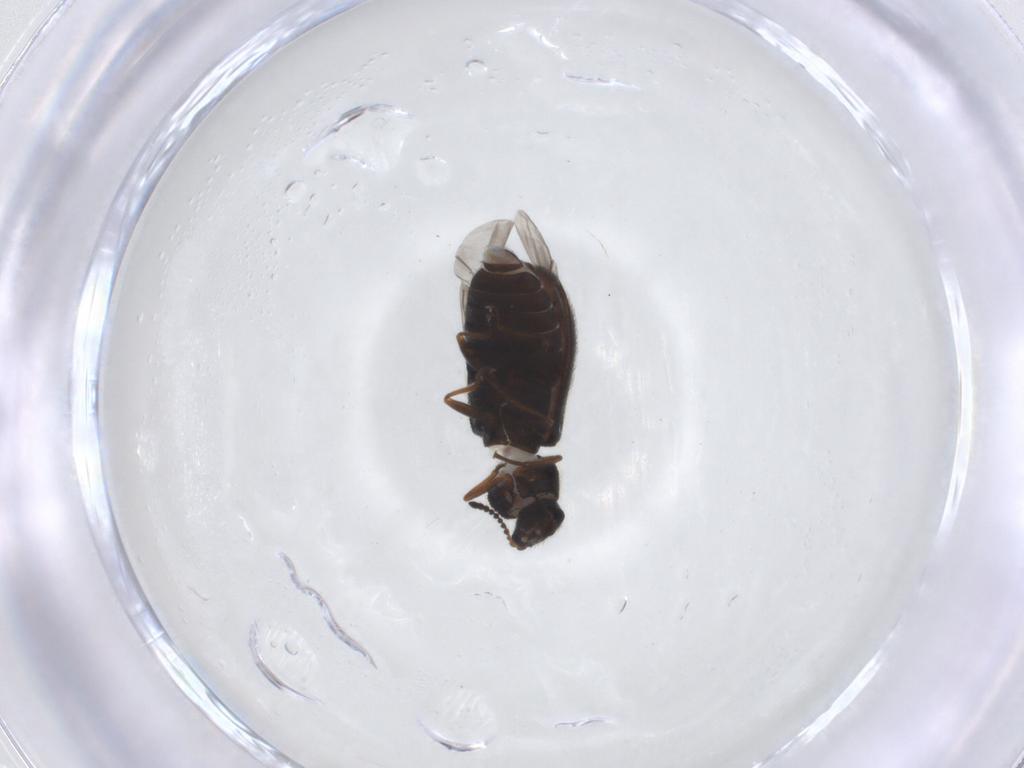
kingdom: Animalia
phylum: Arthropoda
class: Insecta
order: Coleoptera
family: Melyridae
